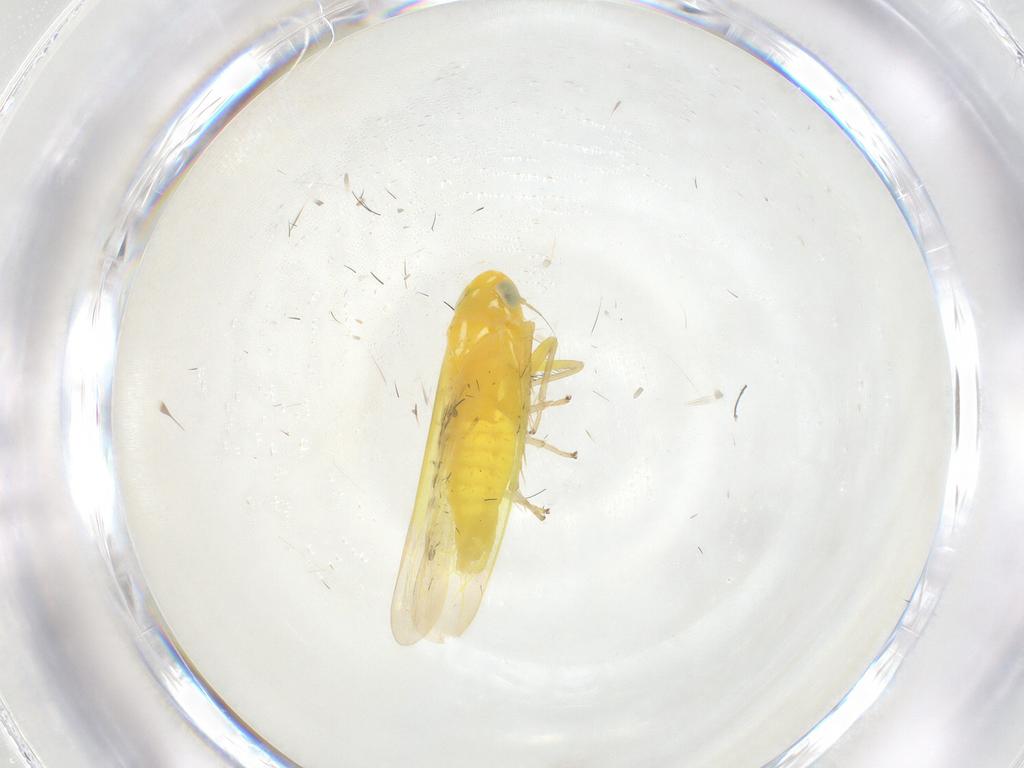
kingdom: Animalia
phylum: Arthropoda
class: Insecta
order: Hemiptera
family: Cicadellidae
